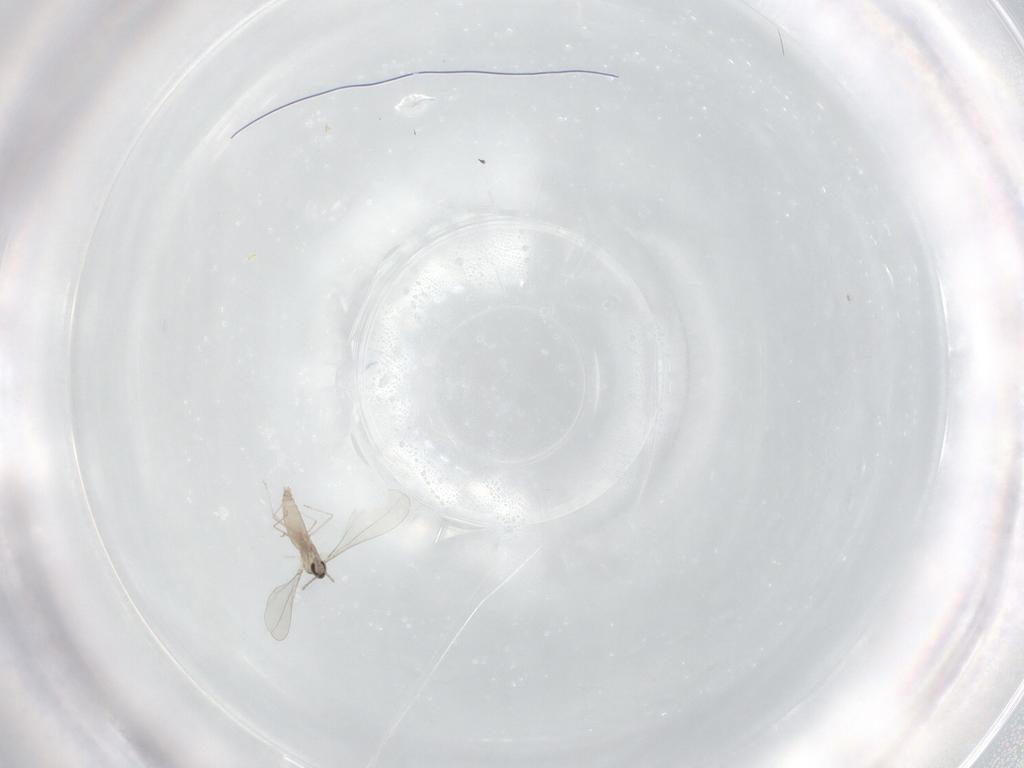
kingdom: Animalia
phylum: Arthropoda
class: Insecta
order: Diptera
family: Cecidomyiidae
